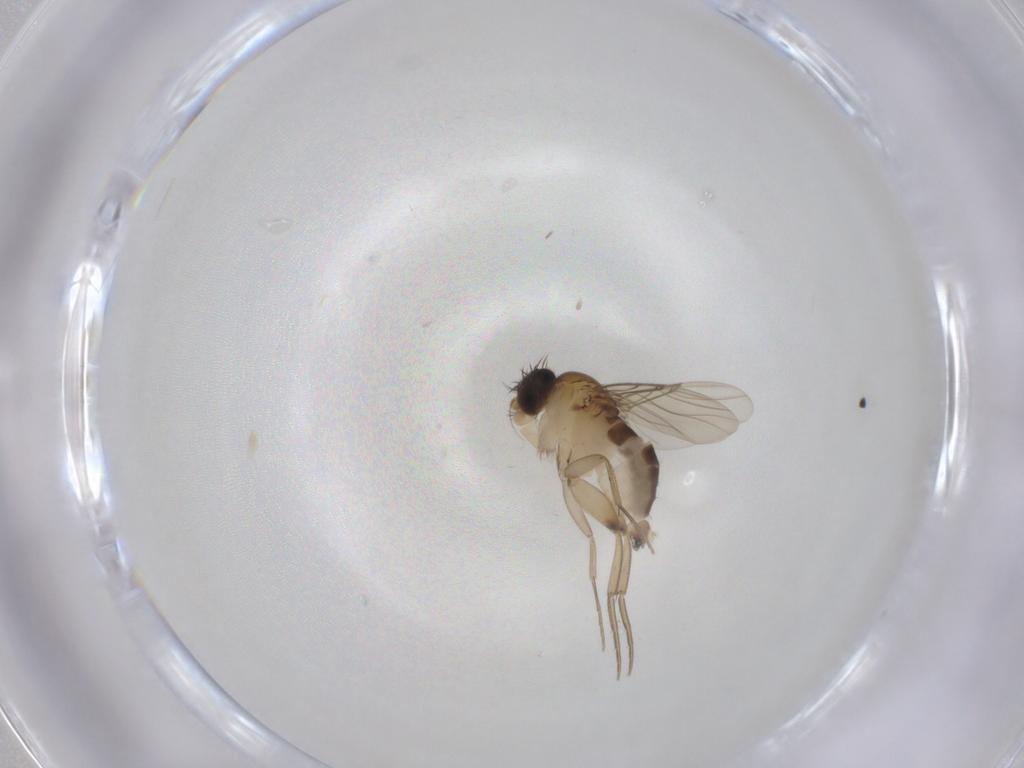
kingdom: Animalia
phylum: Arthropoda
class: Insecta
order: Diptera
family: Phoridae
